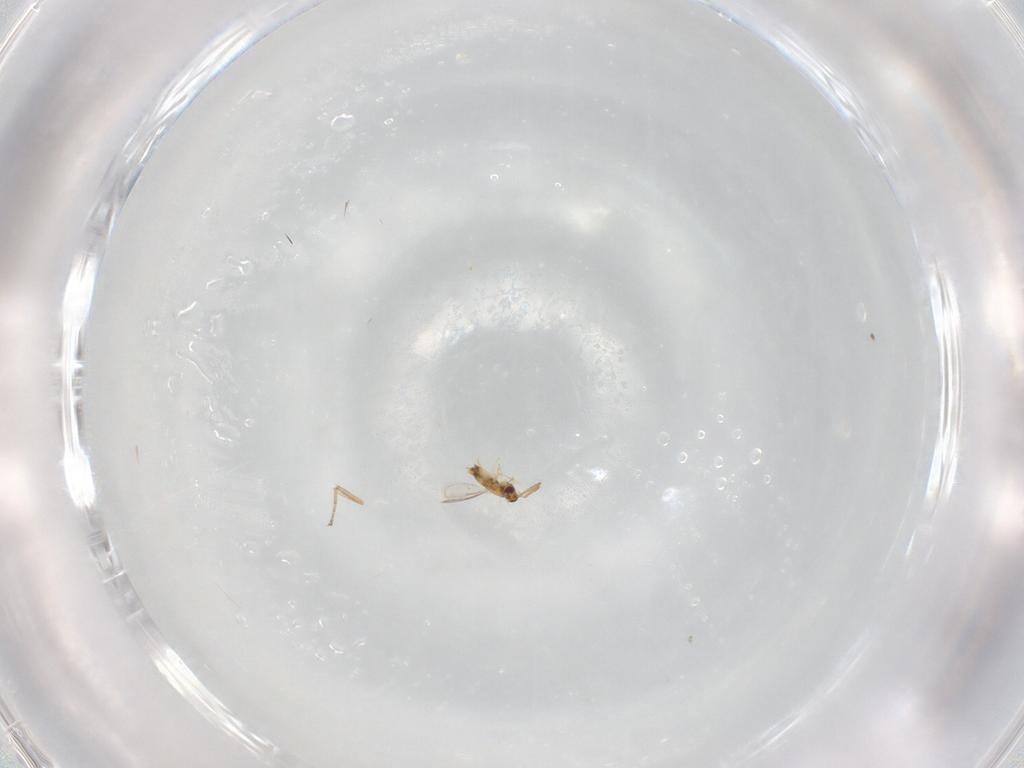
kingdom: Animalia
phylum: Arthropoda
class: Insecta
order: Hymenoptera
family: Aphelinidae
